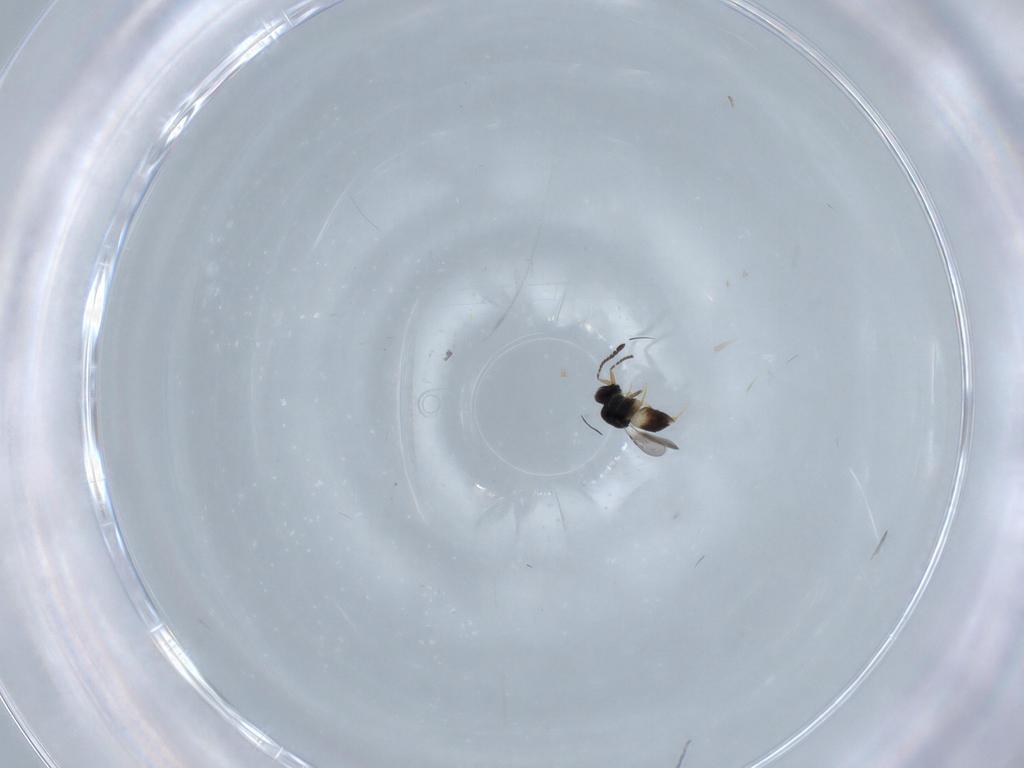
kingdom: Animalia
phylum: Arthropoda
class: Insecta
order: Hymenoptera
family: Ceraphronidae
